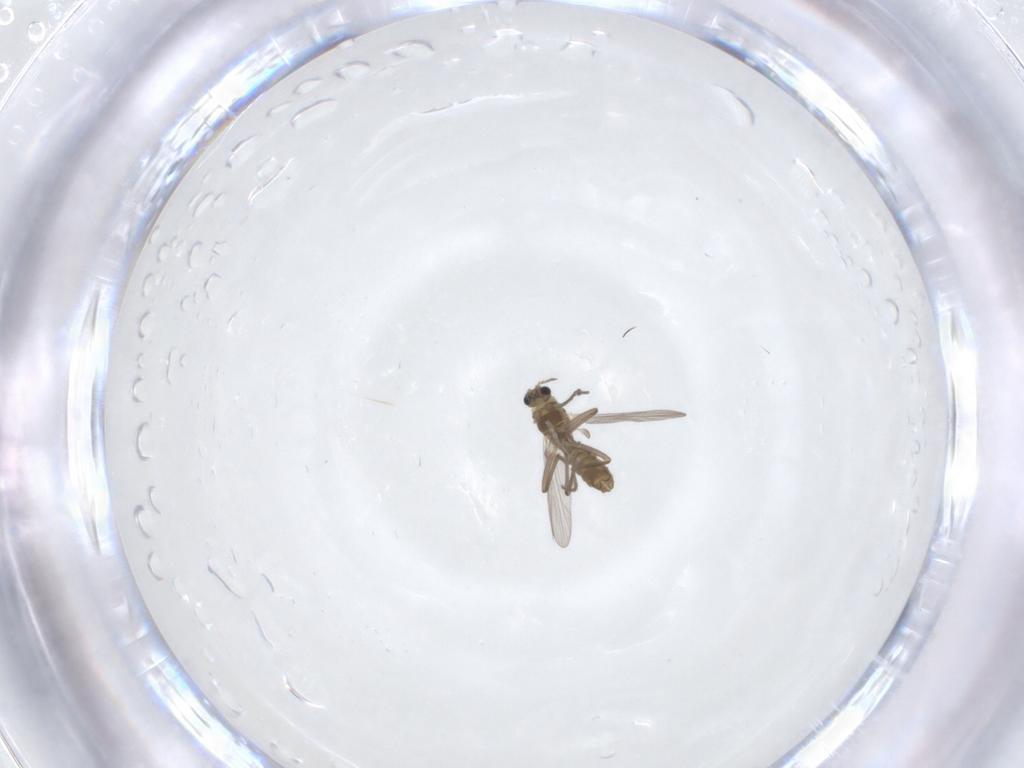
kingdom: Animalia
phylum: Arthropoda
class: Insecta
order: Diptera
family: Chironomidae
